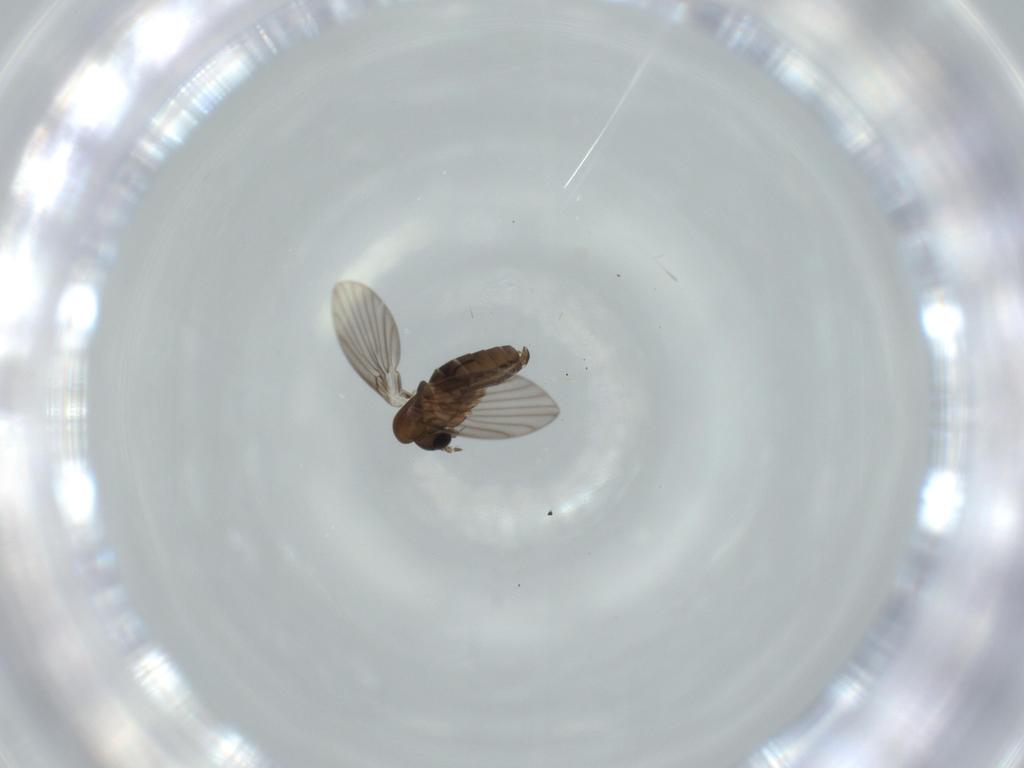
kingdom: Animalia
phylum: Arthropoda
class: Insecta
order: Diptera
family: Psychodidae
